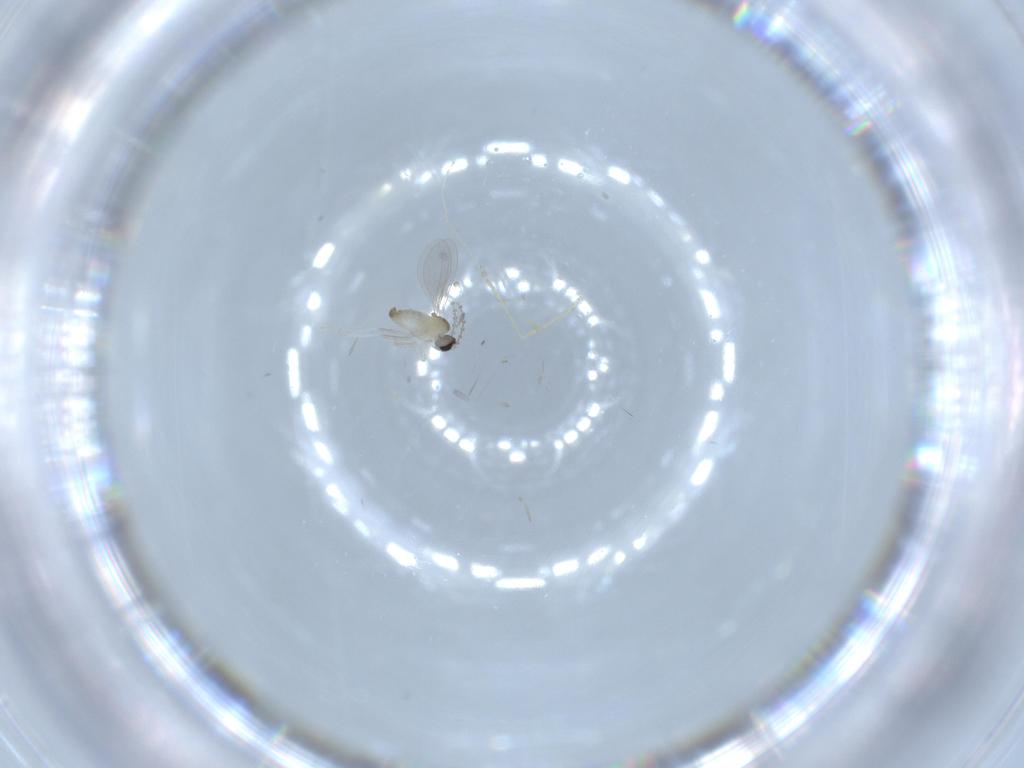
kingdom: Animalia
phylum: Arthropoda
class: Insecta
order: Diptera
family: Cecidomyiidae
